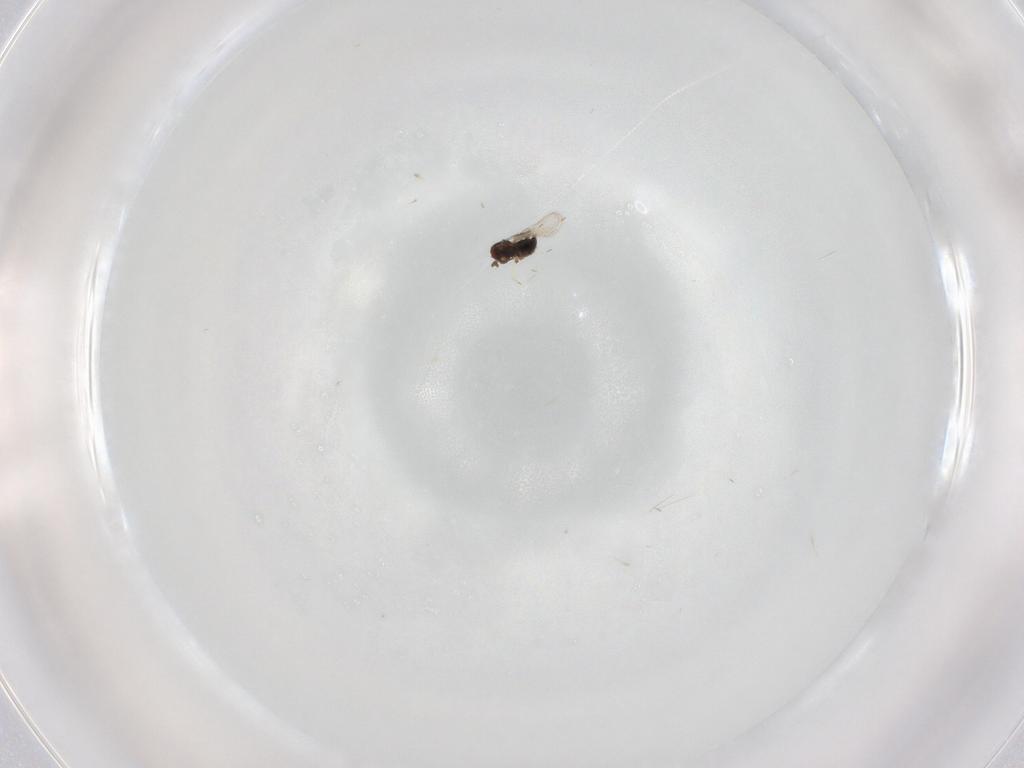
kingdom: Animalia
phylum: Arthropoda
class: Insecta
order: Hymenoptera
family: Trichogrammatidae
